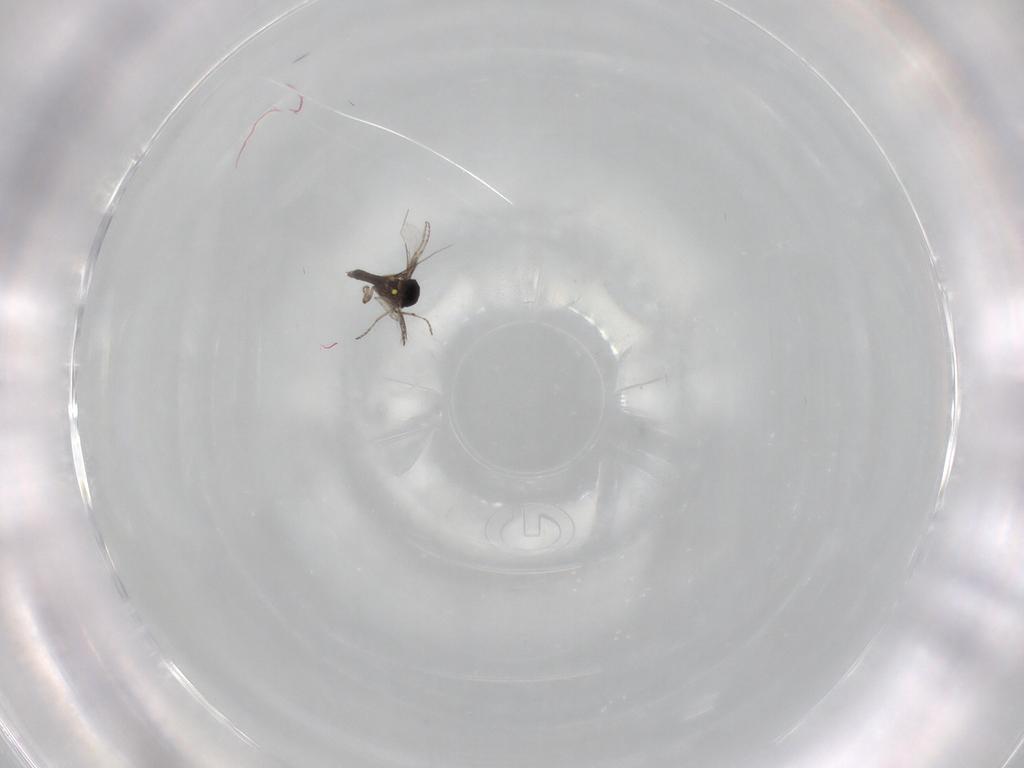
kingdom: Animalia
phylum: Arthropoda
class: Insecta
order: Diptera
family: Ceratopogonidae
